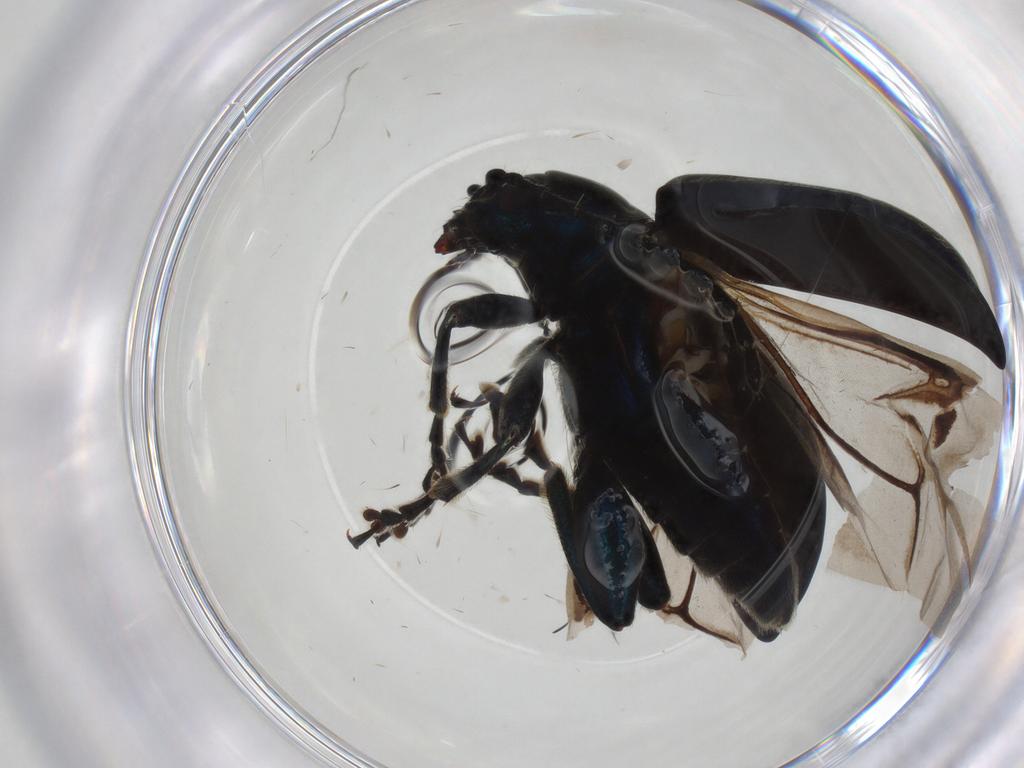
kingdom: Animalia
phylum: Arthropoda
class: Insecta
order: Coleoptera
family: Chrysomelidae
